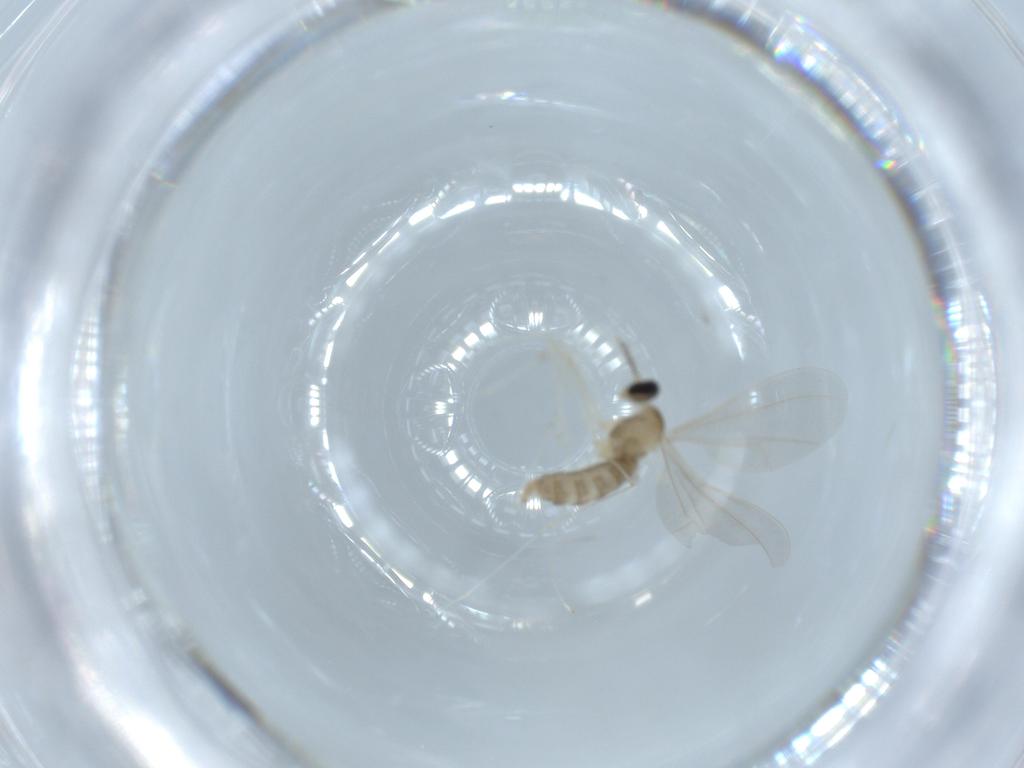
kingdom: Animalia
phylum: Arthropoda
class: Insecta
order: Diptera
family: Cecidomyiidae
